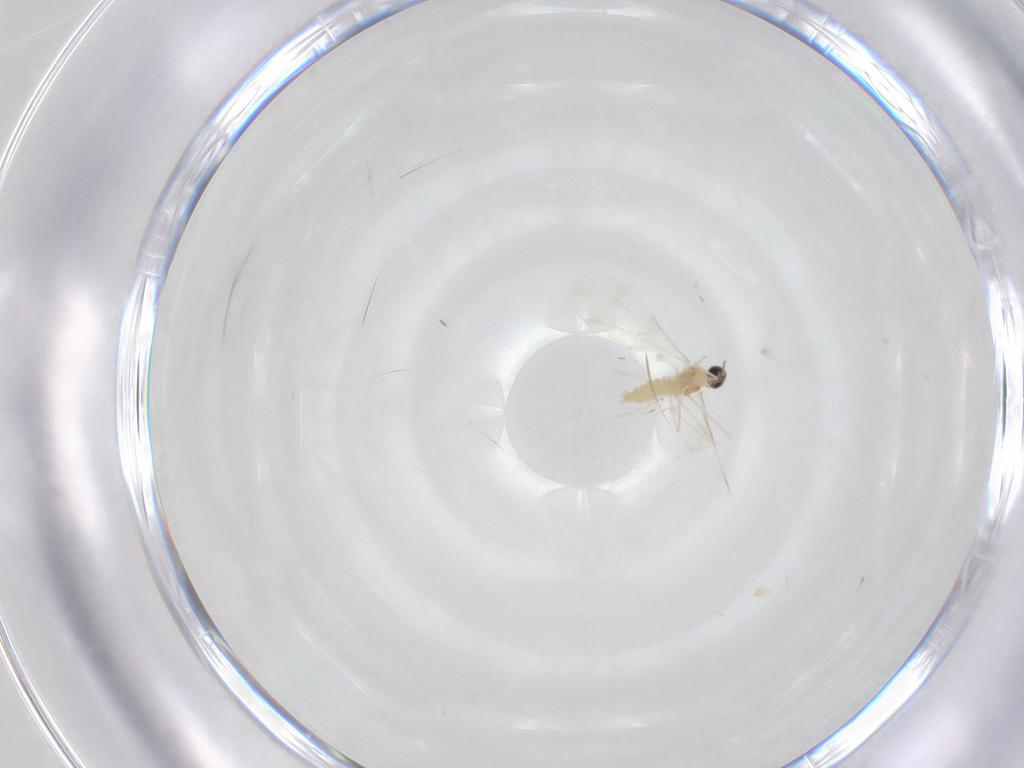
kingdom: Animalia
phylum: Arthropoda
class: Insecta
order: Diptera
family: Cecidomyiidae
